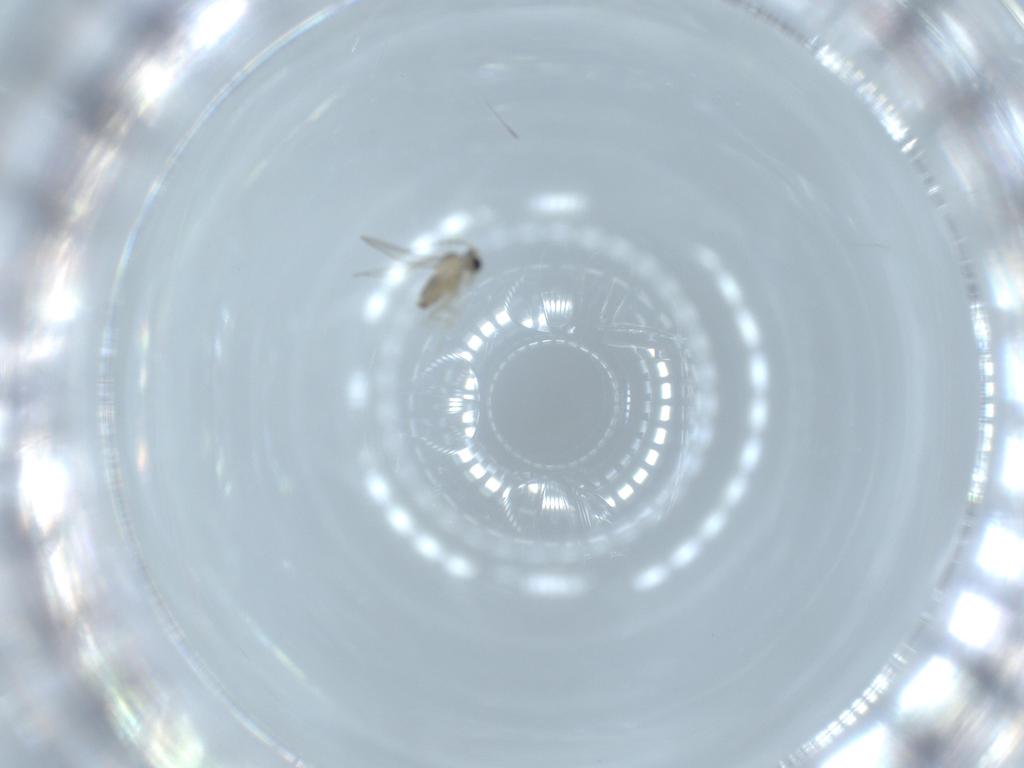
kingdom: Animalia
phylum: Arthropoda
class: Insecta
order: Diptera
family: Cecidomyiidae
